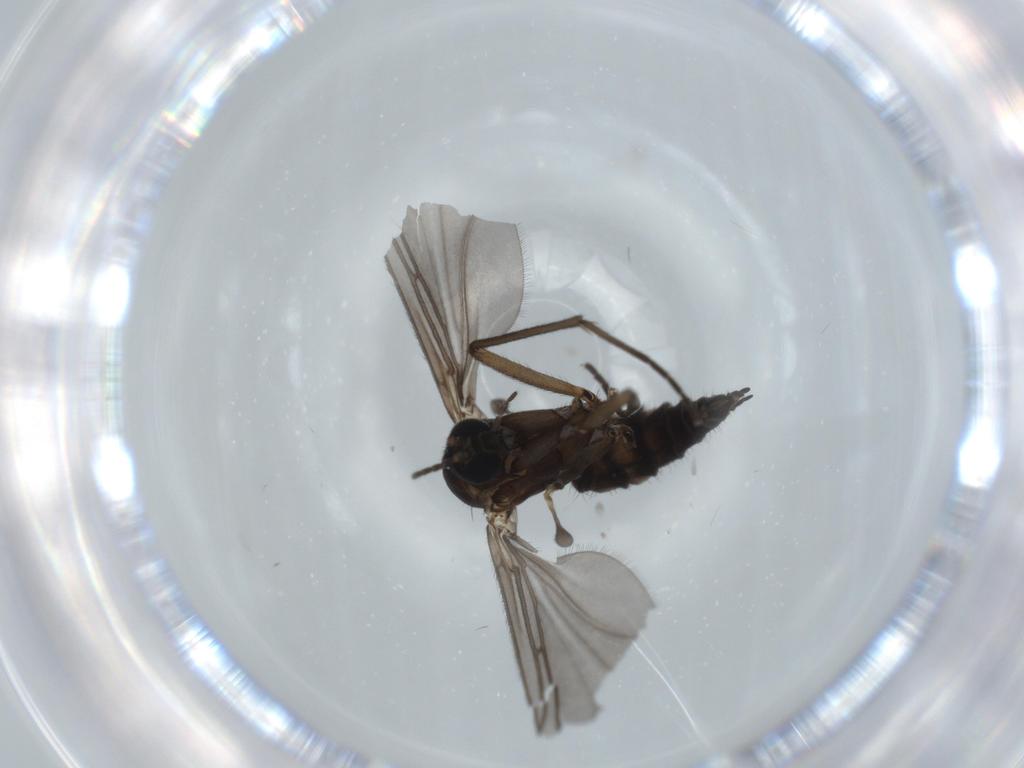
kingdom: Animalia
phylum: Arthropoda
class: Insecta
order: Diptera
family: Sciaridae
